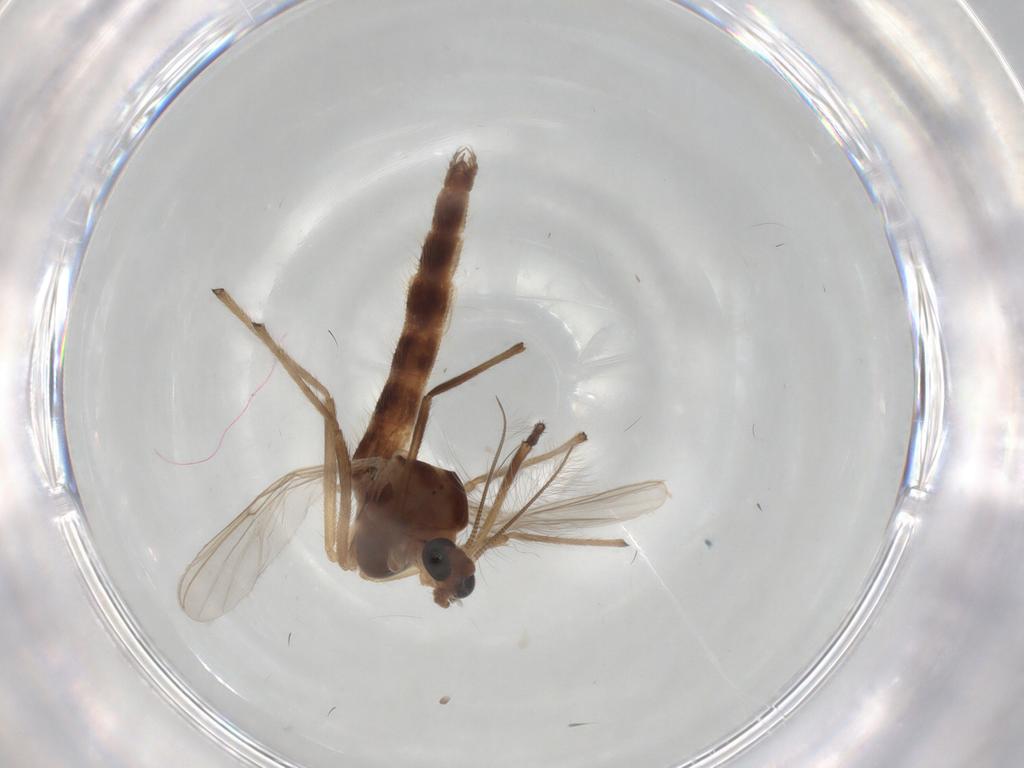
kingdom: Animalia
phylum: Arthropoda
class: Insecta
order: Diptera
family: Chironomidae
